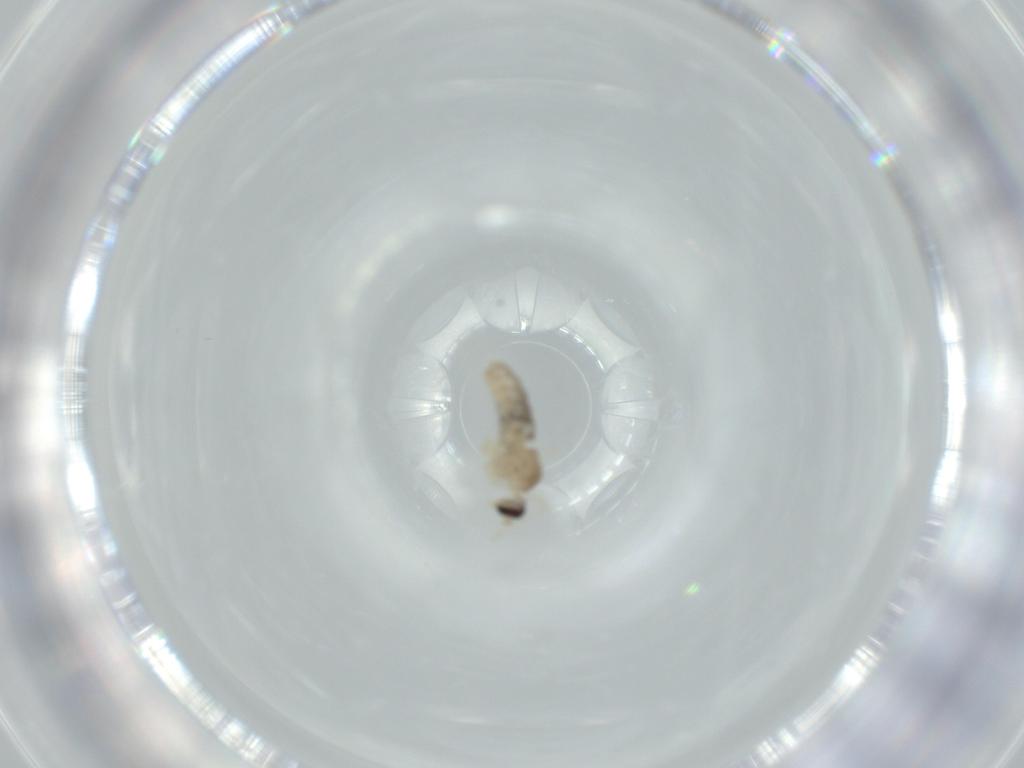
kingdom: Animalia
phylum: Arthropoda
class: Insecta
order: Diptera
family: Cecidomyiidae
